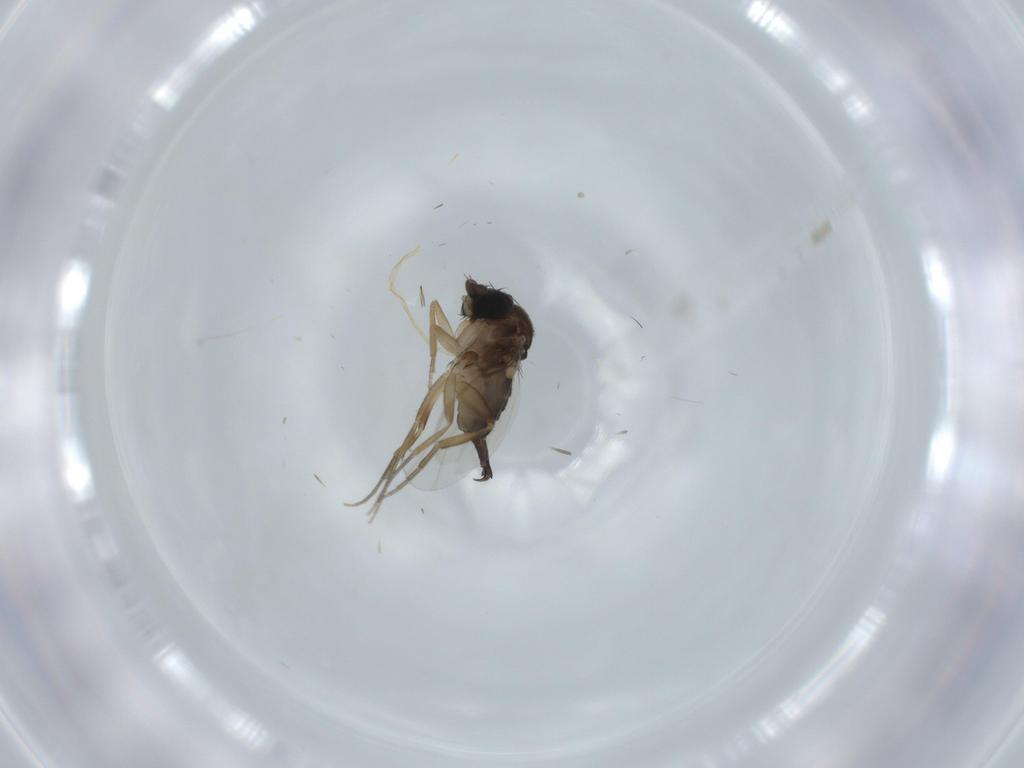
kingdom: Animalia
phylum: Arthropoda
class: Insecta
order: Diptera
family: Phoridae
